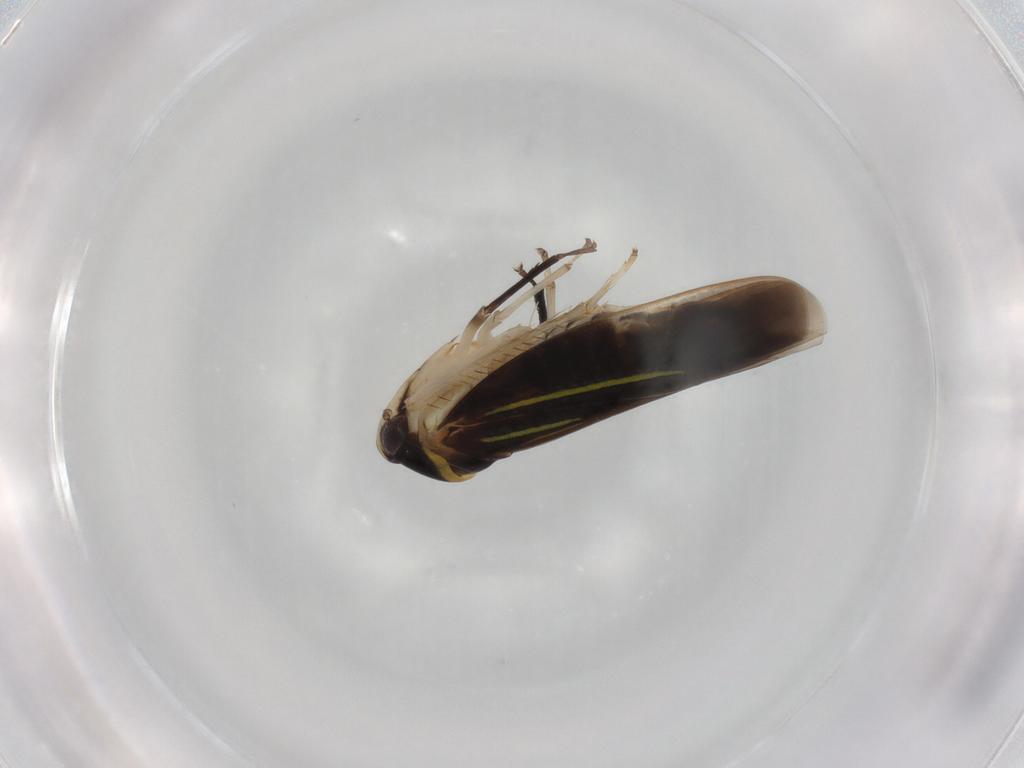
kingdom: Animalia
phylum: Arthropoda
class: Insecta
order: Hemiptera
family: Cicadellidae
